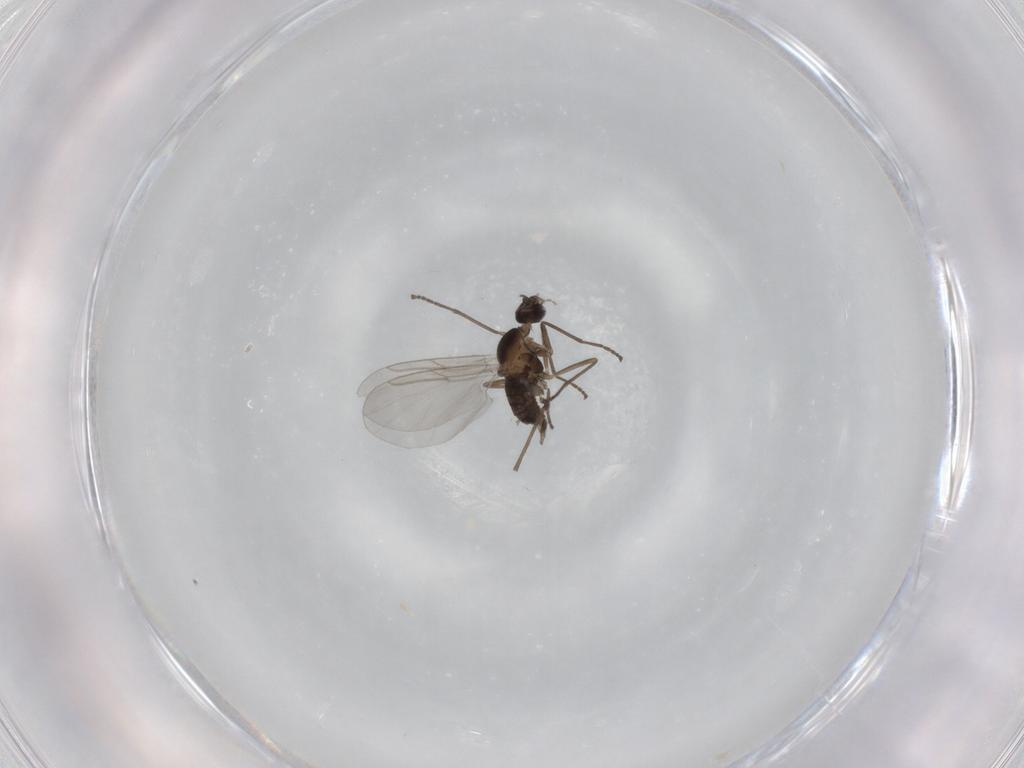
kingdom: Animalia
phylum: Arthropoda
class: Insecta
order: Diptera
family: Cecidomyiidae
